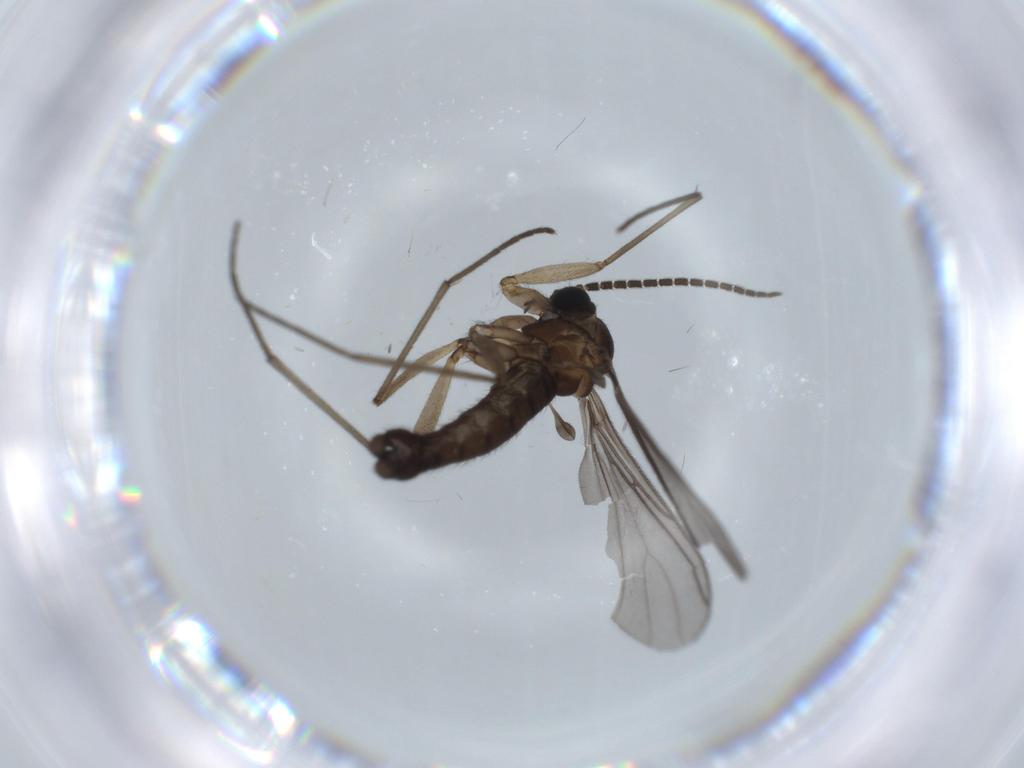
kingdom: Animalia
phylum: Arthropoda
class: Insecta
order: Diptera
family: Sciaridae
